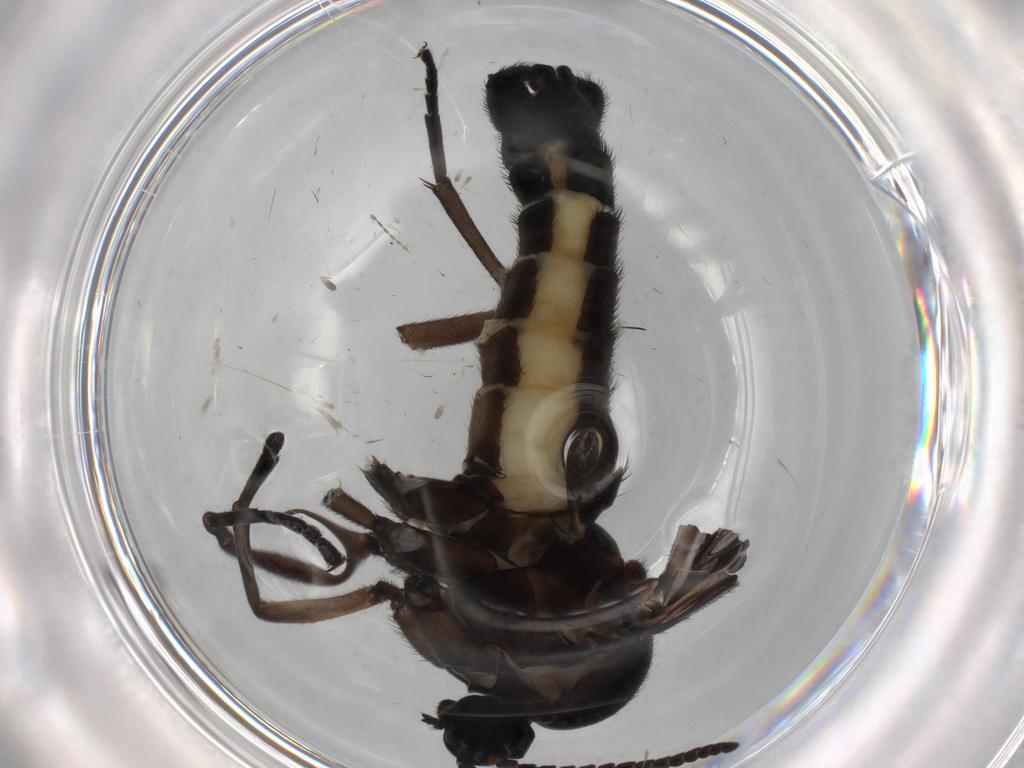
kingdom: Animalia
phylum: Arthropoda
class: Insecta
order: Diptera
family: Sciaridae
